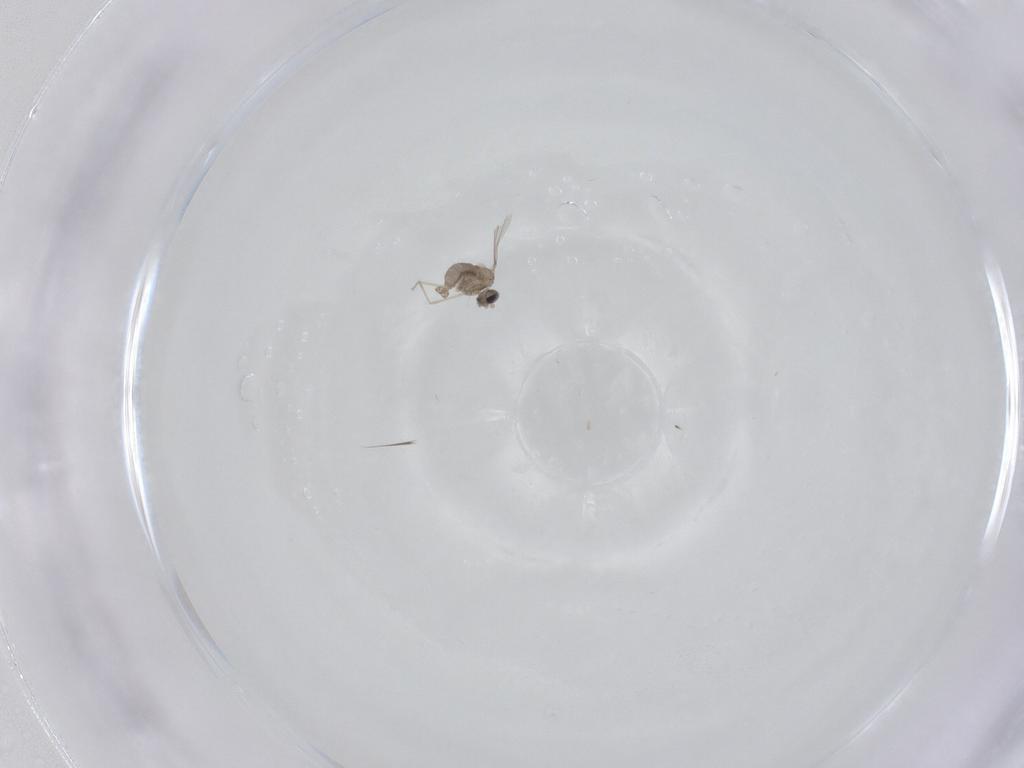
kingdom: Animalia
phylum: Arthropoda
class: Insecta
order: Diptera
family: Cecidomyiidae
